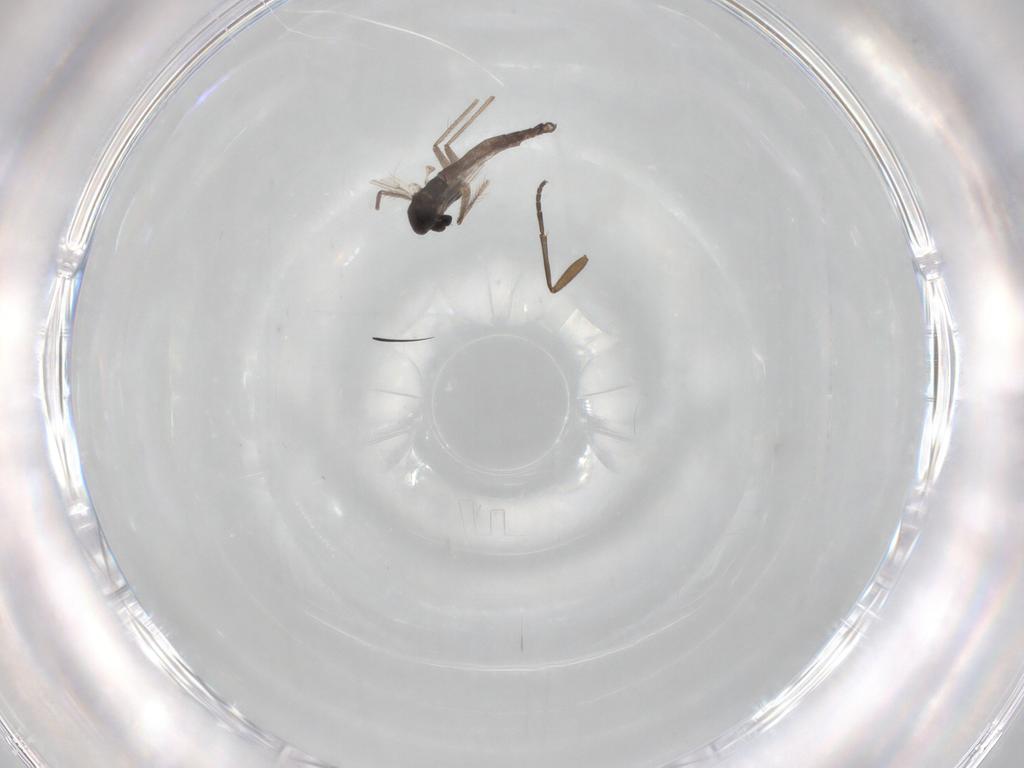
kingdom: Animalia
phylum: Arthropoda
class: Insecta
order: Diptera
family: Chironomidae
